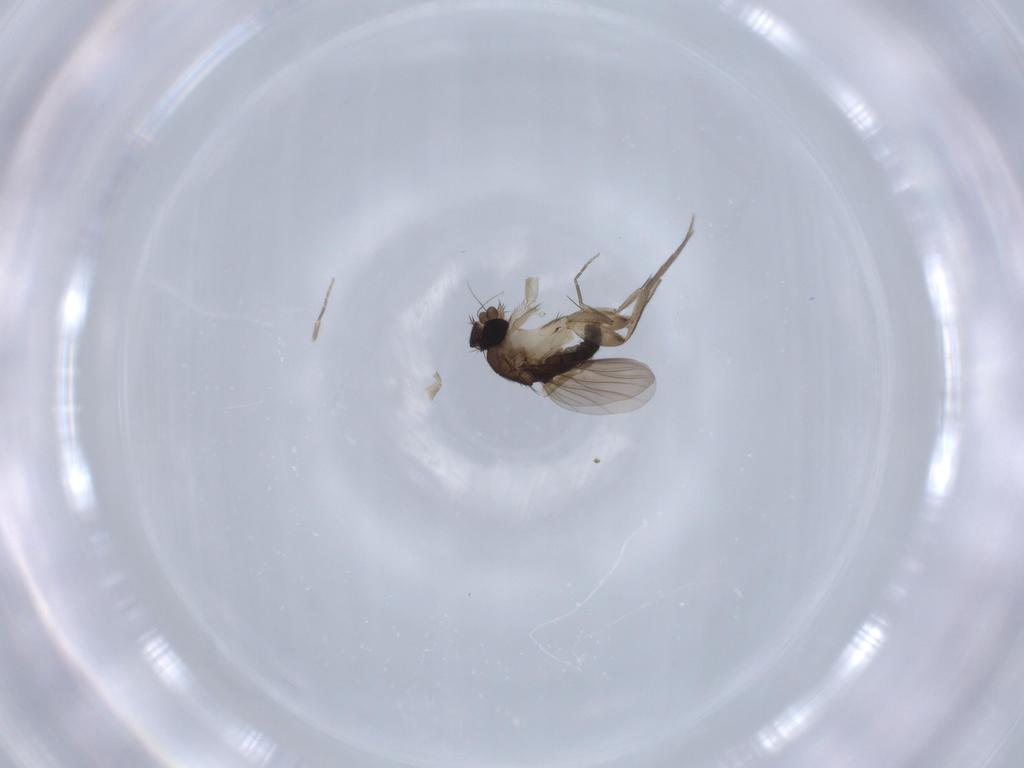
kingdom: Animalia
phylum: Arthropoda
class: Insecta
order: Diptera
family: Phoridae
